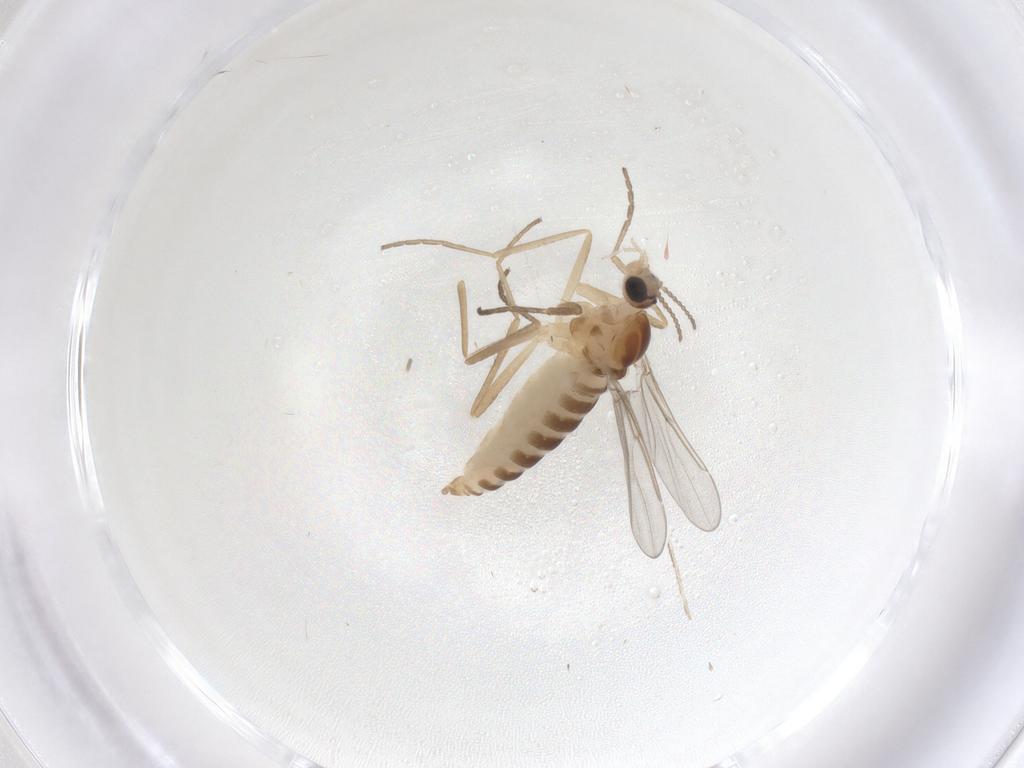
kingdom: Animalia
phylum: Arthropoda
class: Insecta
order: Diptera
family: Cecidomyiidae
